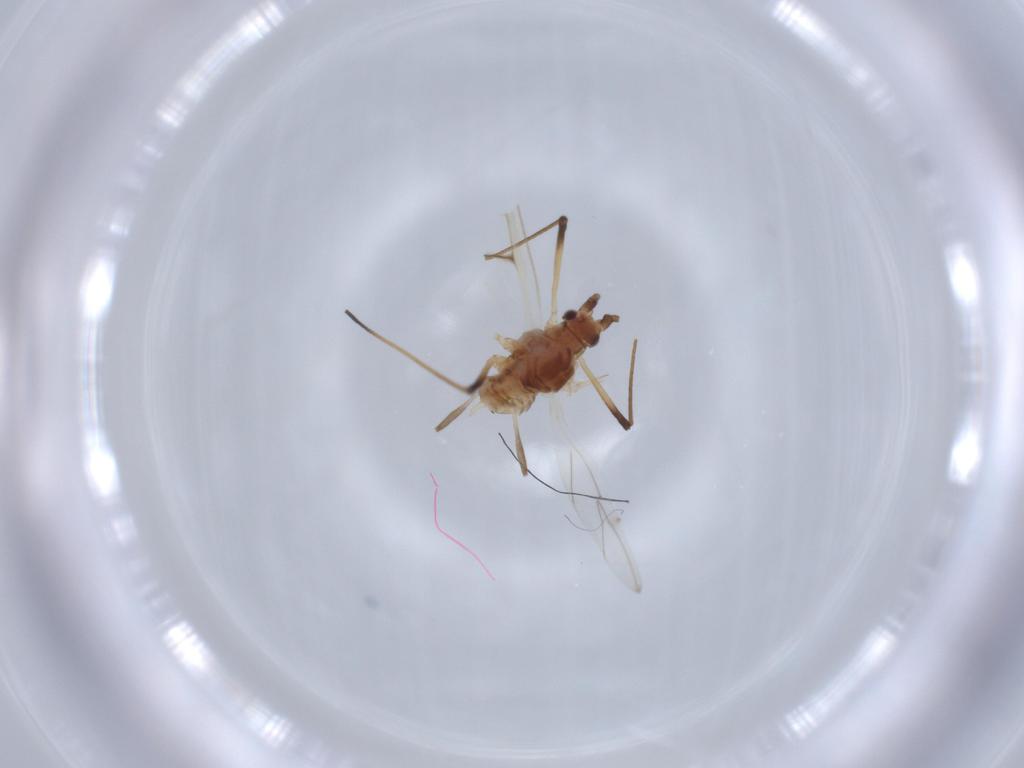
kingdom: Animalia
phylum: Arthropoda
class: Insecta
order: Hemiptera
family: Aphididae
